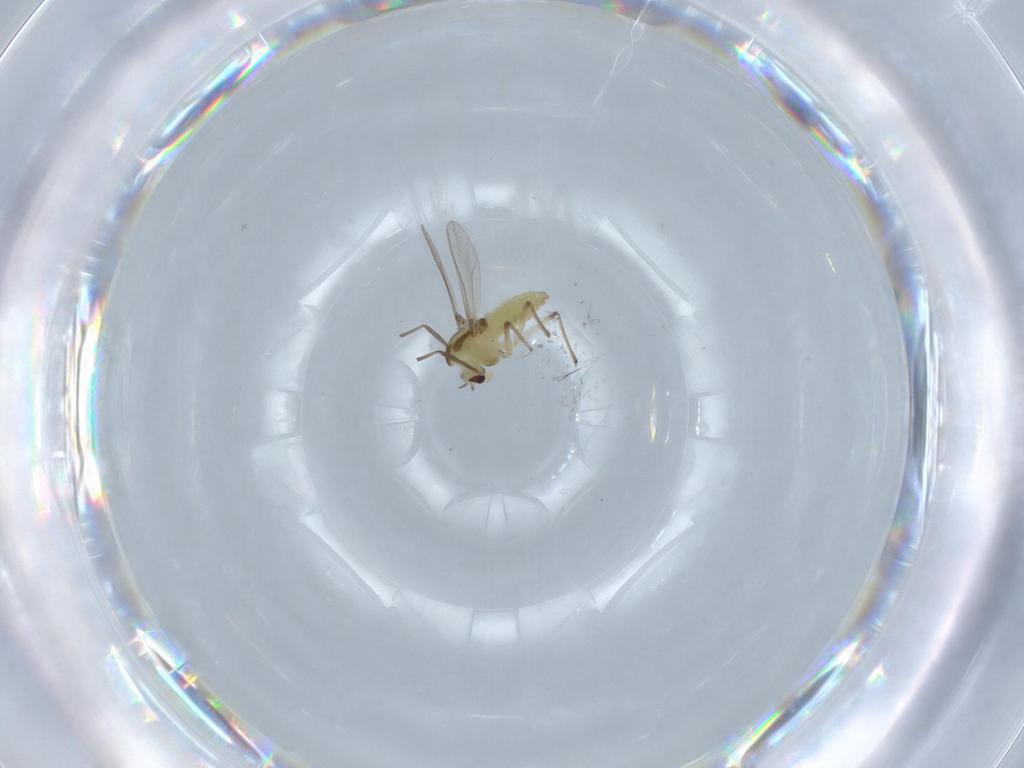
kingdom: Animalia
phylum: Arthropoda
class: Insecta
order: Diptera
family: Chironomidae
